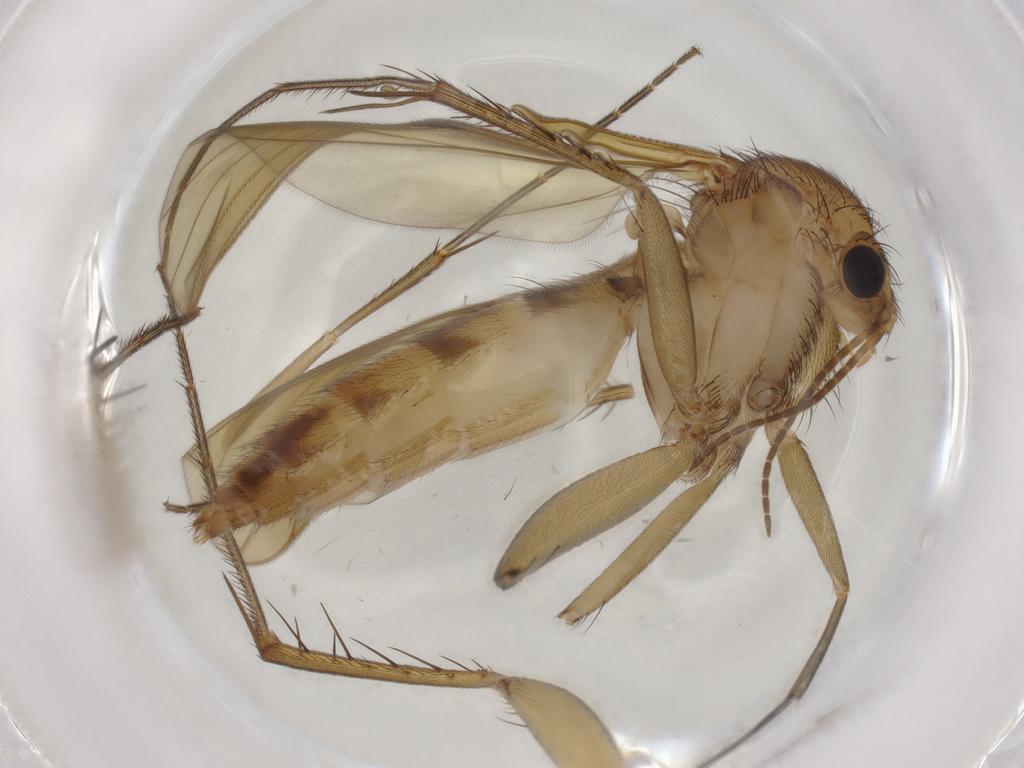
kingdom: Animalia
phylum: Arthropoda
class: Insecta
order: Diptera
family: Mycetophilidae
